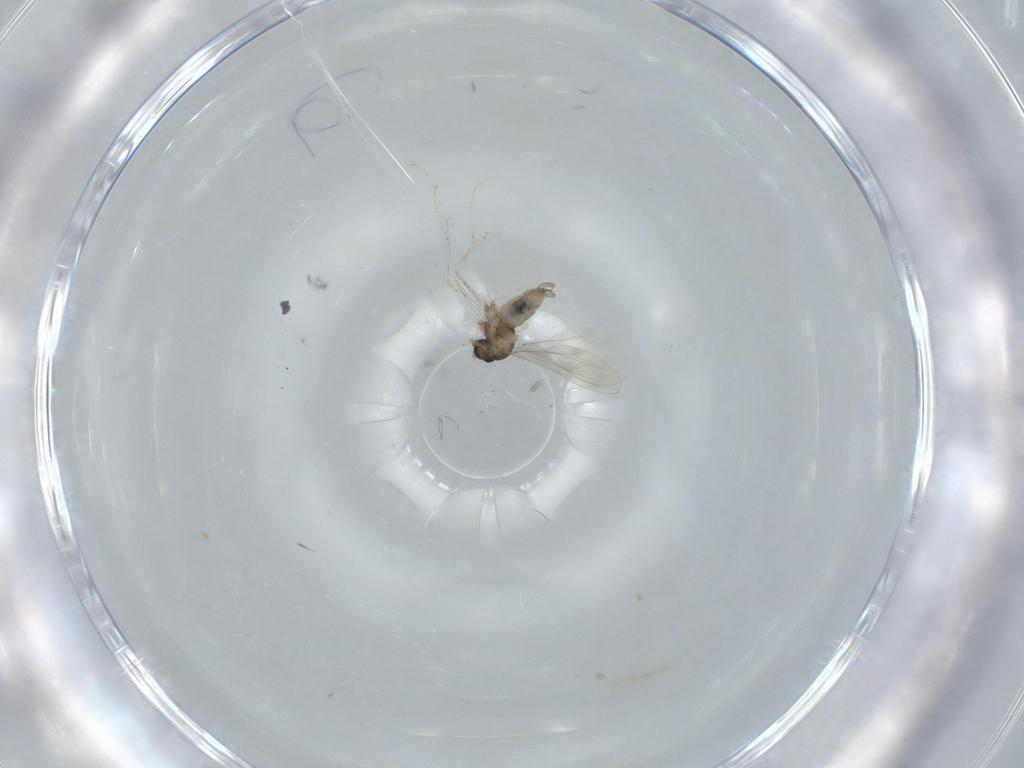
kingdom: Animalia
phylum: Arthropoda
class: Insecta
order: Diptera
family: Cecidomyiidae
